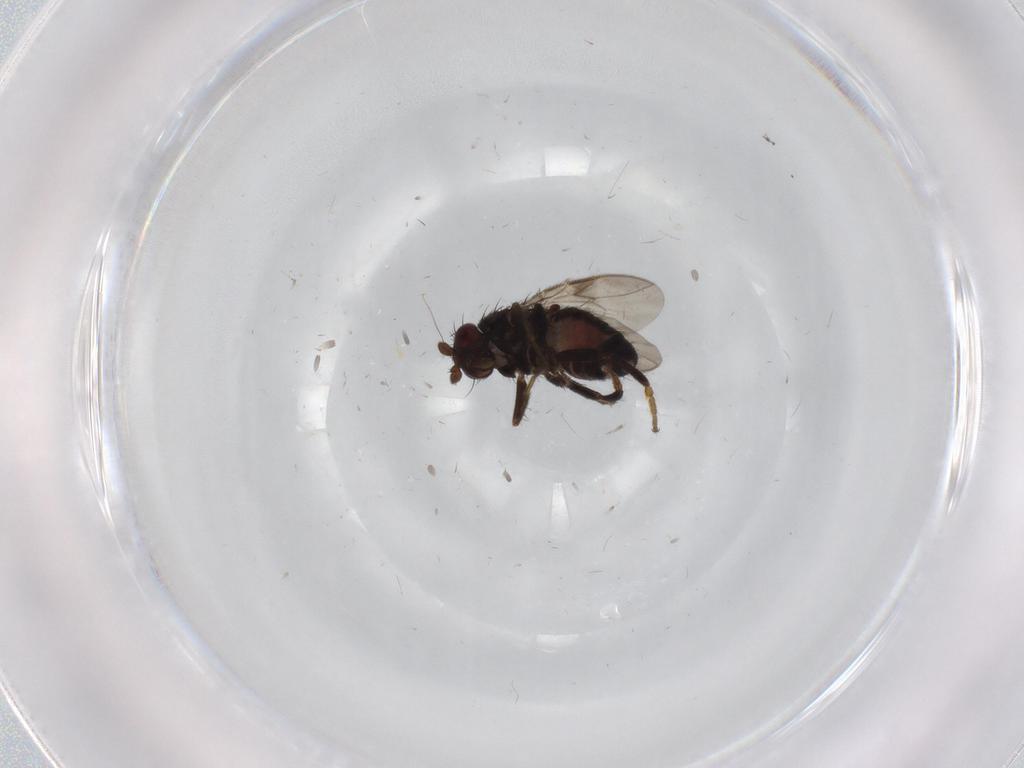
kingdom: Animalia
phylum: Arthropoda
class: Insecta
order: Diptera
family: Sphaeroceridae
